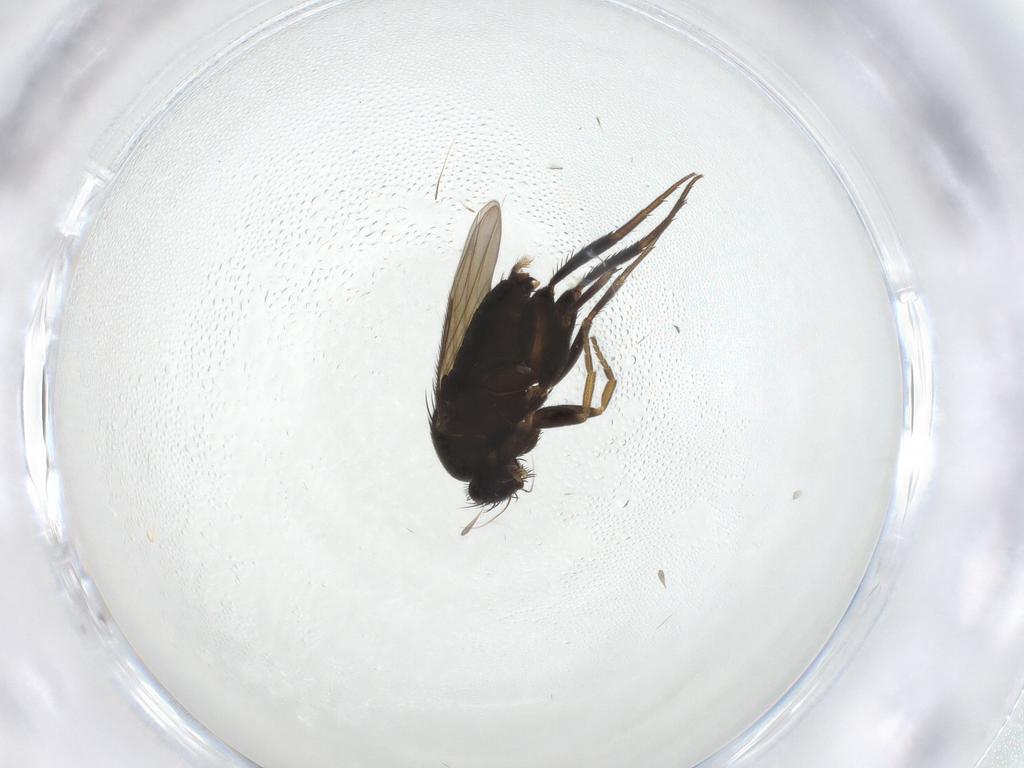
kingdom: Animalia
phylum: Arthropoda
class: Insecta
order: Diptera
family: Phoridae
